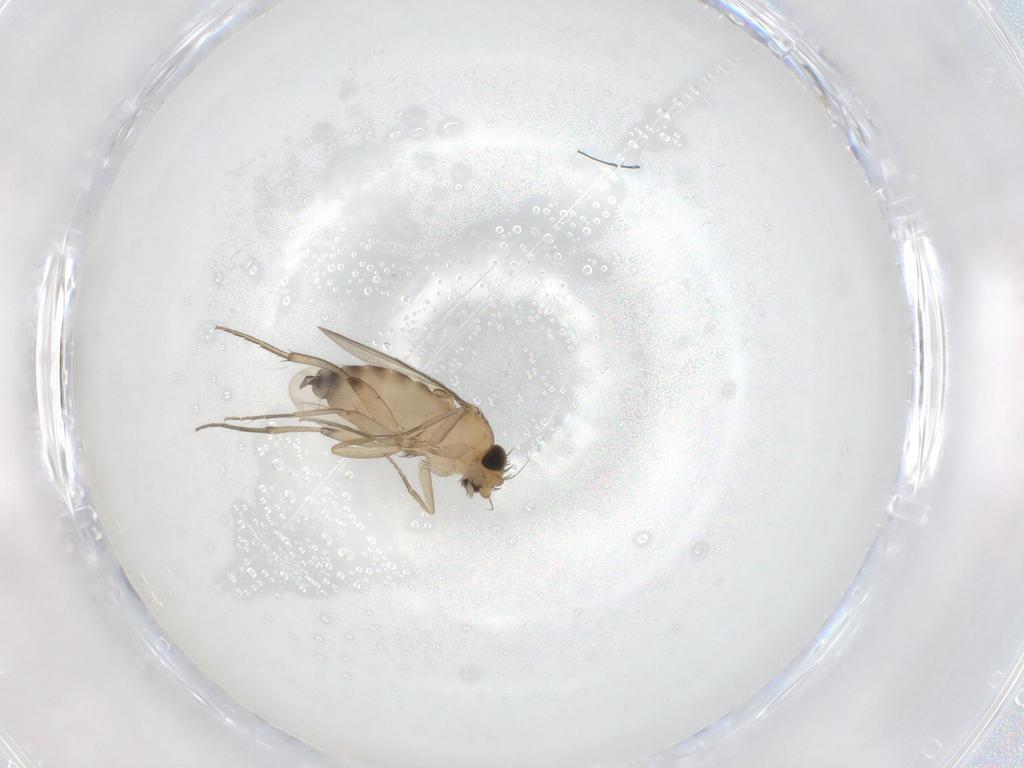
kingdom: Animalia
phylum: Arthropoda
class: Insecta
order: Diptera
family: Phoridae
